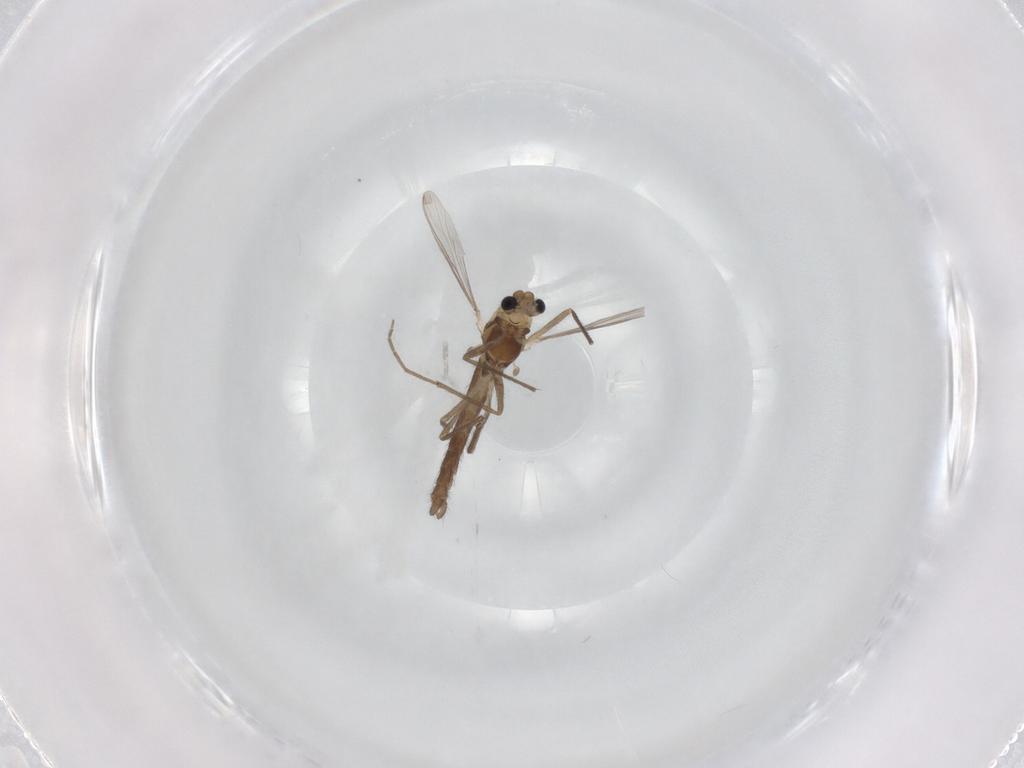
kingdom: Animalia
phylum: Arthropoda
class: Insecta
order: Diptera
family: Chironomidae
